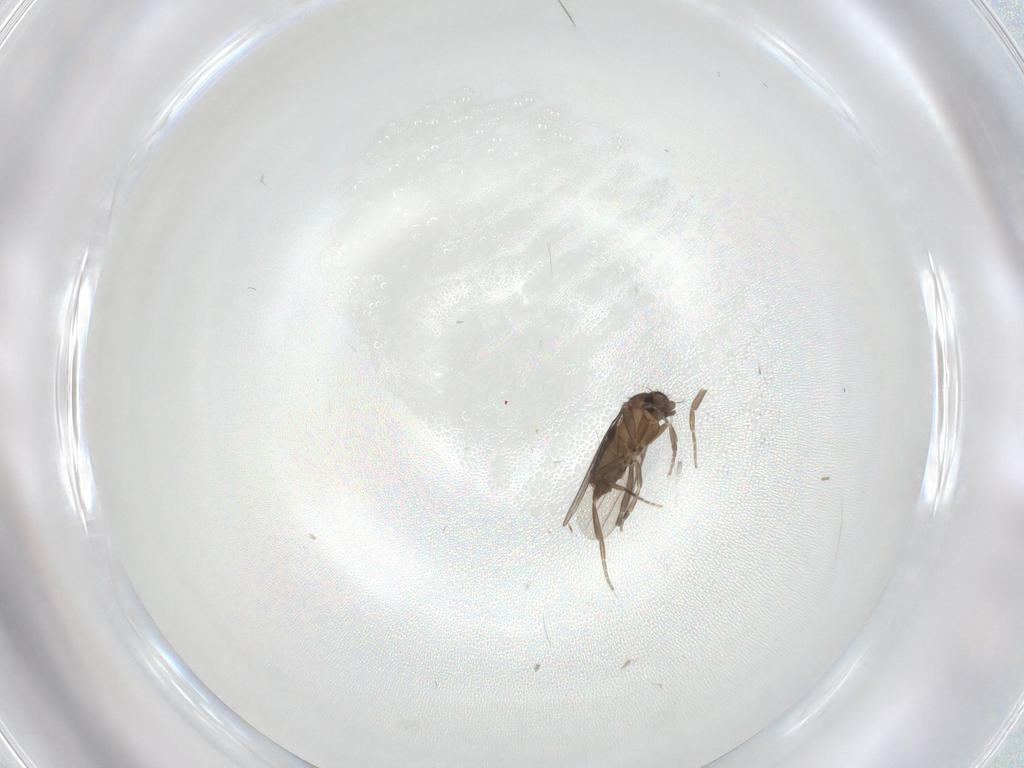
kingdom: Animalia
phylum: Arthropoda
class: Insecta
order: Diptera
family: Phoridae
